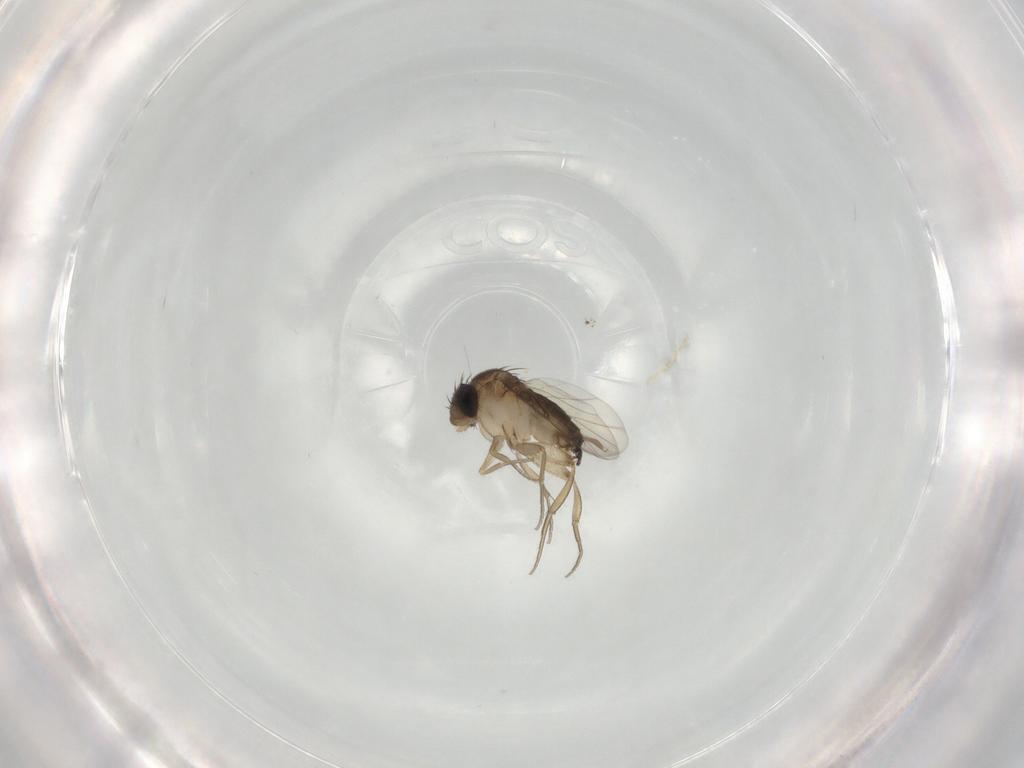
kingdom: Animalia
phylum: Arthropoda
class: Insecta
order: Diptera
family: Chironomidae
